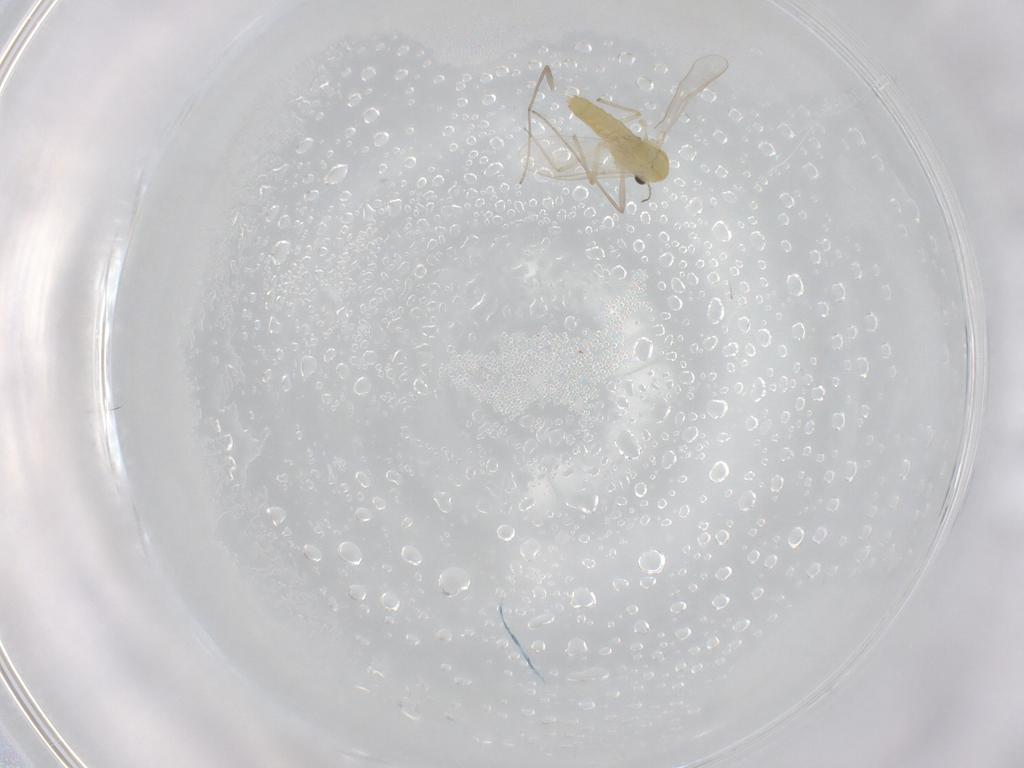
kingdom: Animalia
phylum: Arthropoda
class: Insecta
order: Diptera
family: Chironomidae
